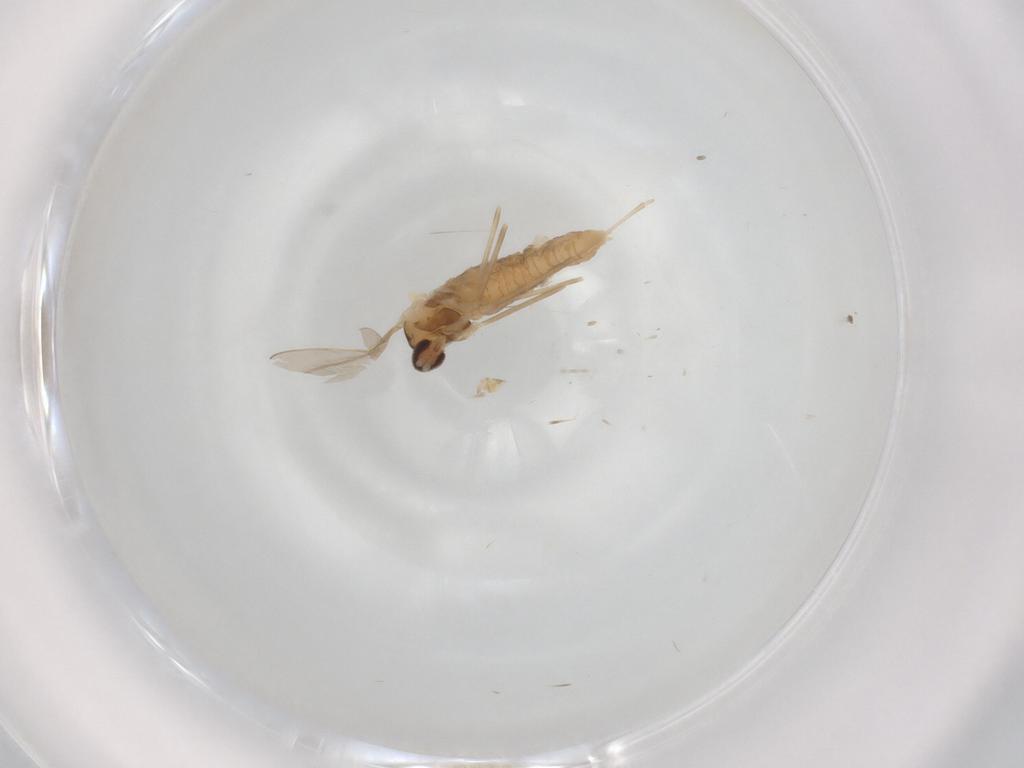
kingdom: Animalia
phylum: Arthropoda
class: Insecta
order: Diptera
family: Cecidomyiidae
